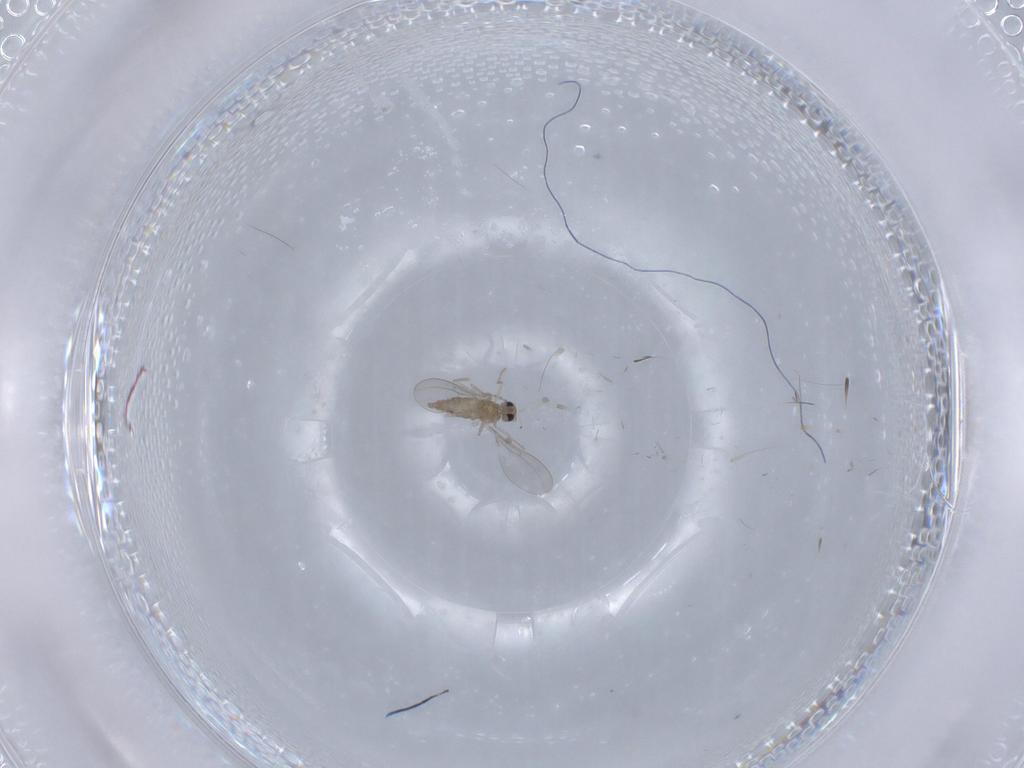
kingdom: Animalia
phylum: Arthropoda
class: Insecta
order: Diptera
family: Cecidomyiidae
